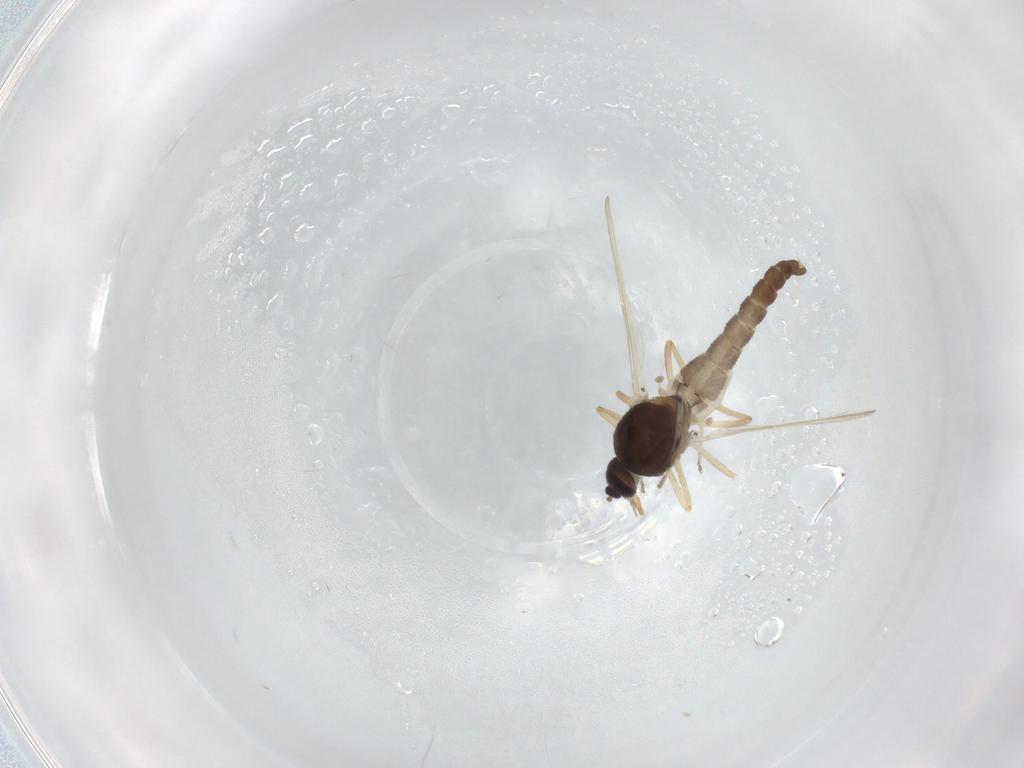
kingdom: Animalia
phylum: Arthropoda
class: Insecta
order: Diptera
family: Ceratopogonidae
